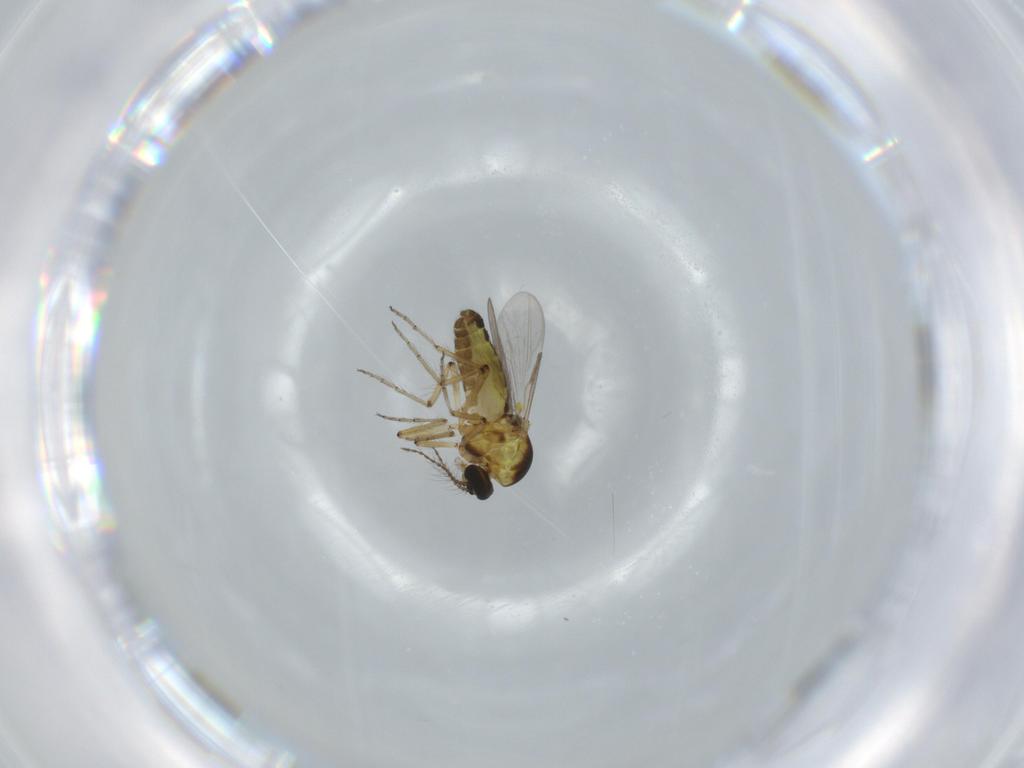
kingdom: Animalia
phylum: Arthropoda
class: Insecta
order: Diptera
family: Ceratopogonidae
